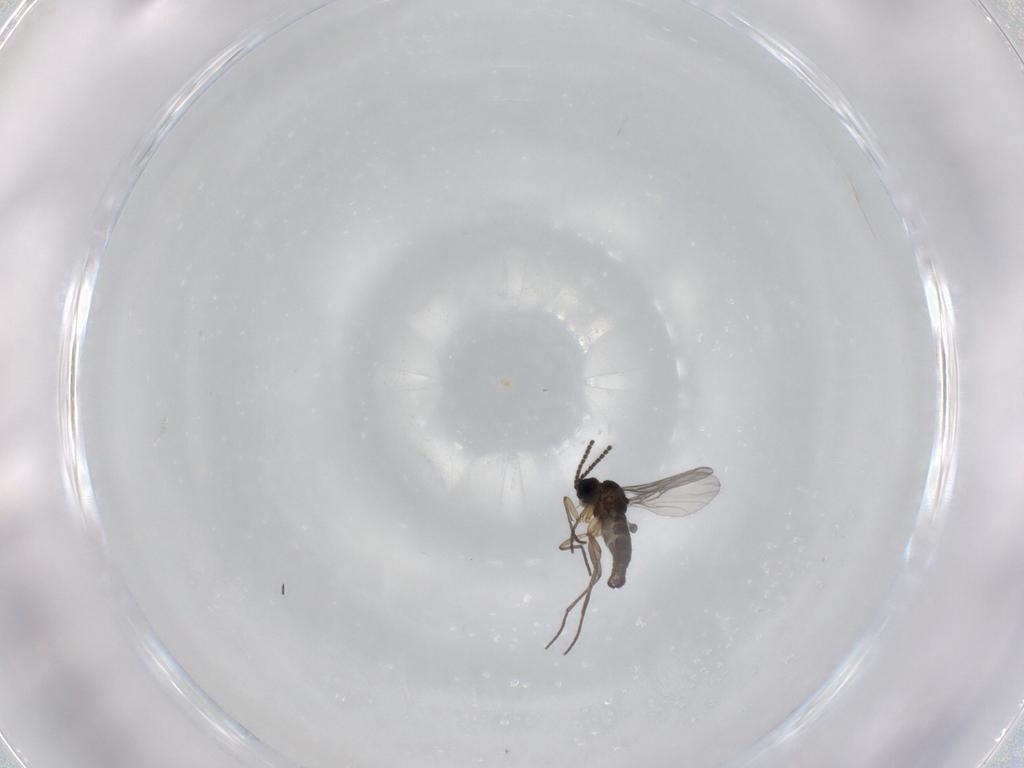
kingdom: Animalia
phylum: Arthropoda
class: Insecta
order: Diptera
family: Sciaridae
